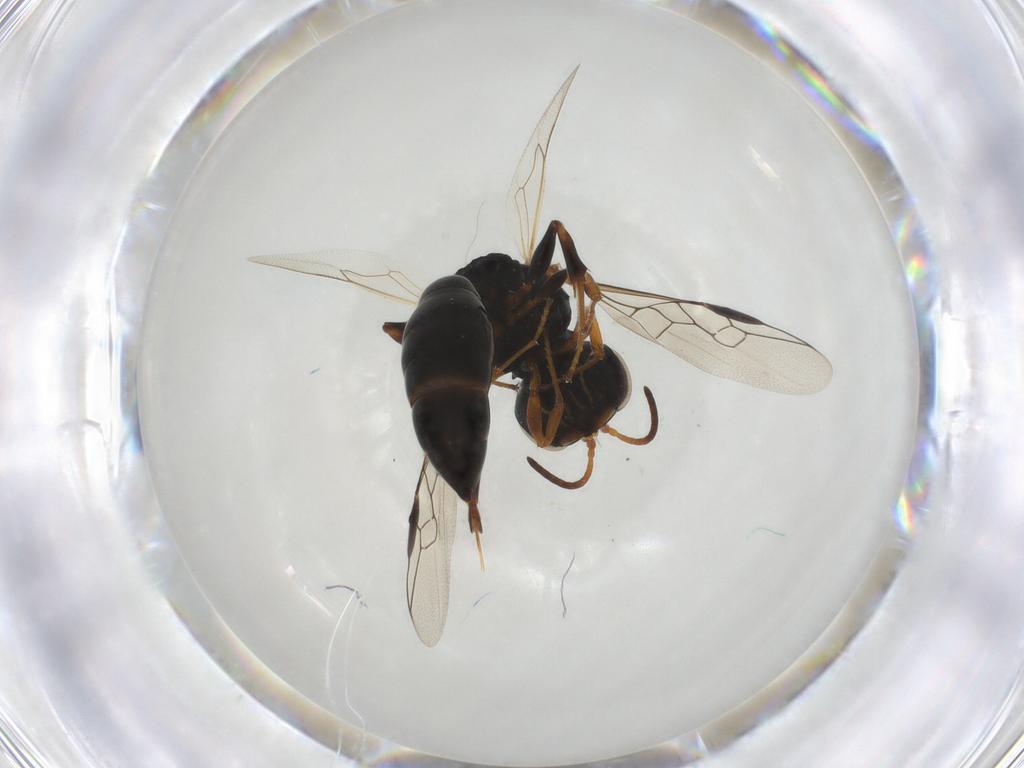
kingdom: Animalia
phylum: Arthropoda
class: Insecta
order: Hymenoptera
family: Crabronidae
